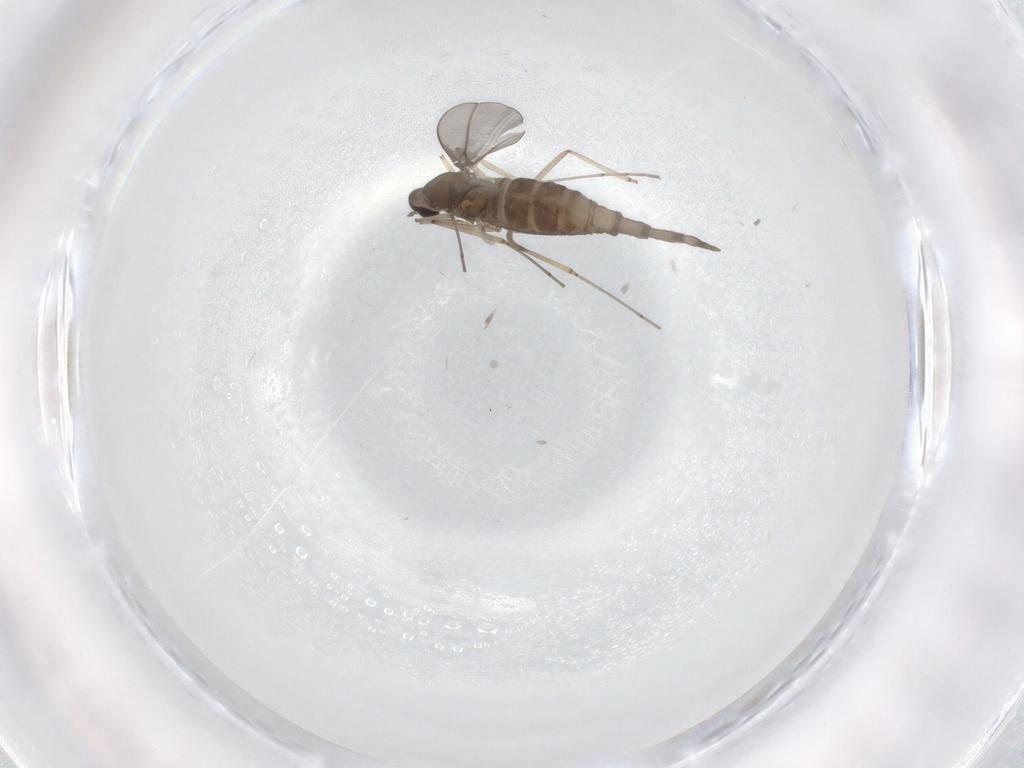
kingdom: Animalia
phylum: Arthropoda
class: Insecta
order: Diptera
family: Cecidomyiidae
